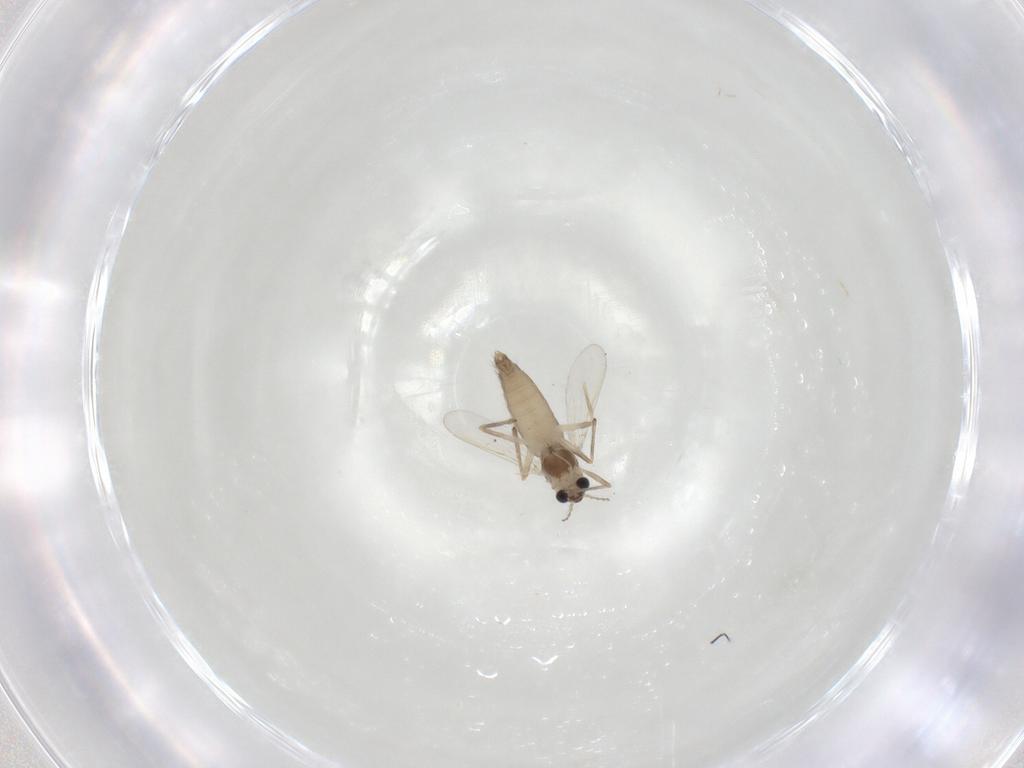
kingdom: Animalia
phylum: Arthropoda
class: Insecta
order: Diptera
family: Chironomidae
